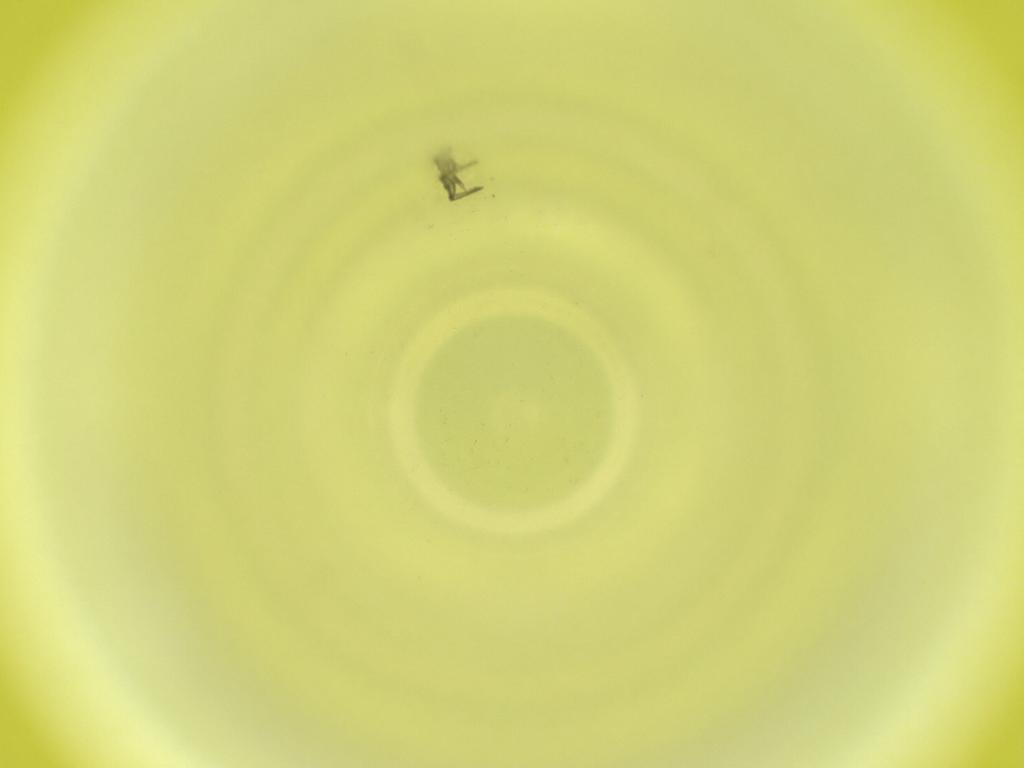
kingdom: Animalia
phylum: Arthropoda
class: Insecta
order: Diptera
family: Cecidomyiidae
